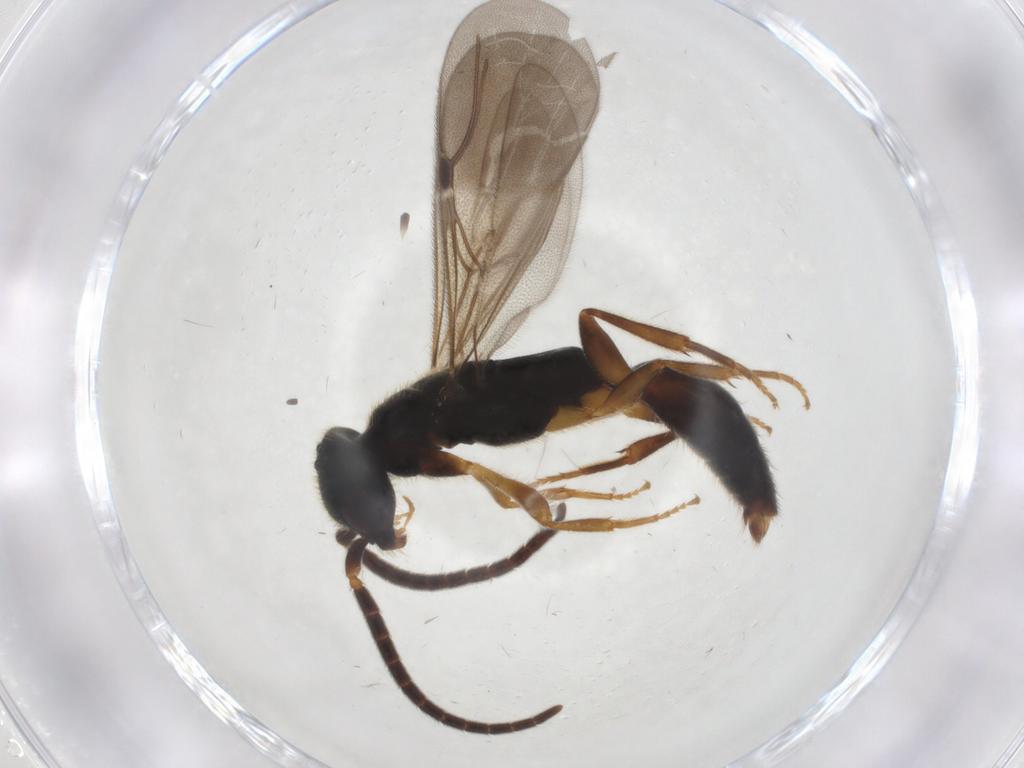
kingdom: Animalia
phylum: Arthropoda
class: Insecta
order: Hymenoptera
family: Bethylidae
